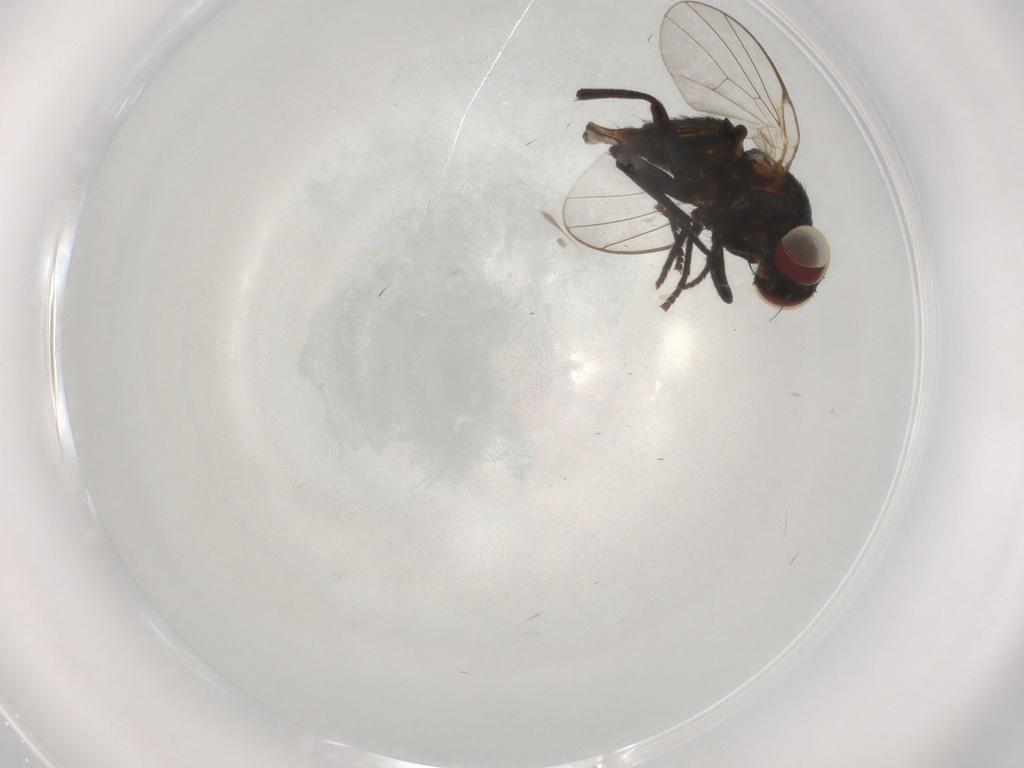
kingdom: Animalia
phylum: Arthropoda
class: Insecta
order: Diptera
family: Agromyzidae
